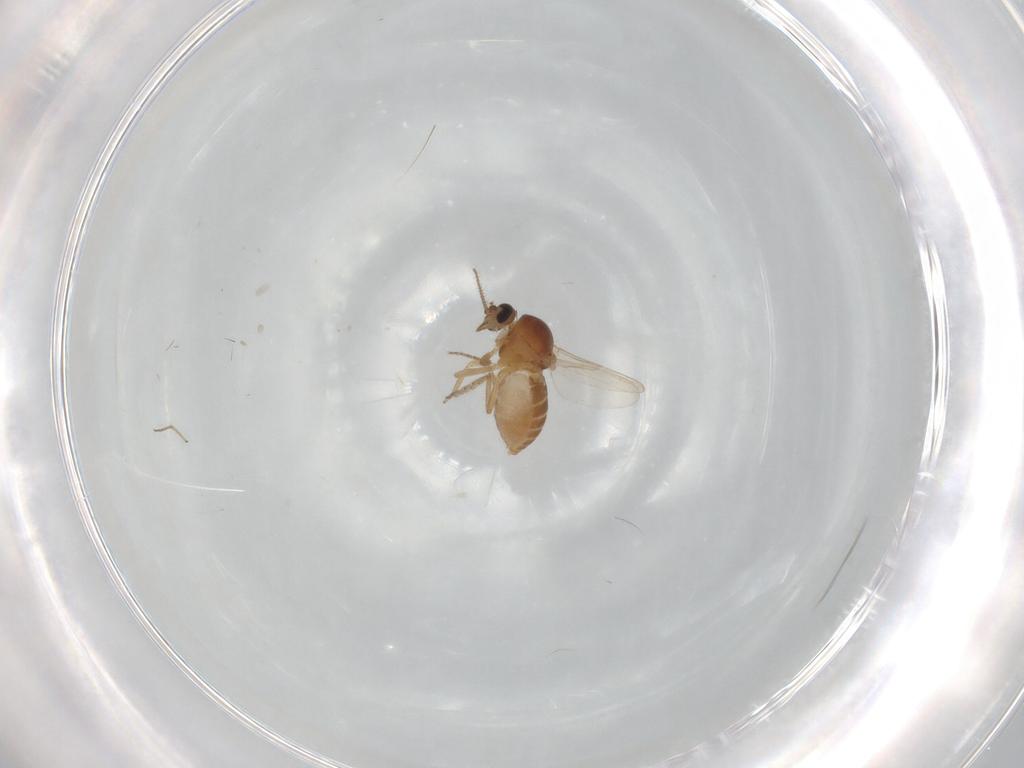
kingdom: Animalia
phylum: Arthropoda
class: Insecta
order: Diptera
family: Ceratopogonidae
